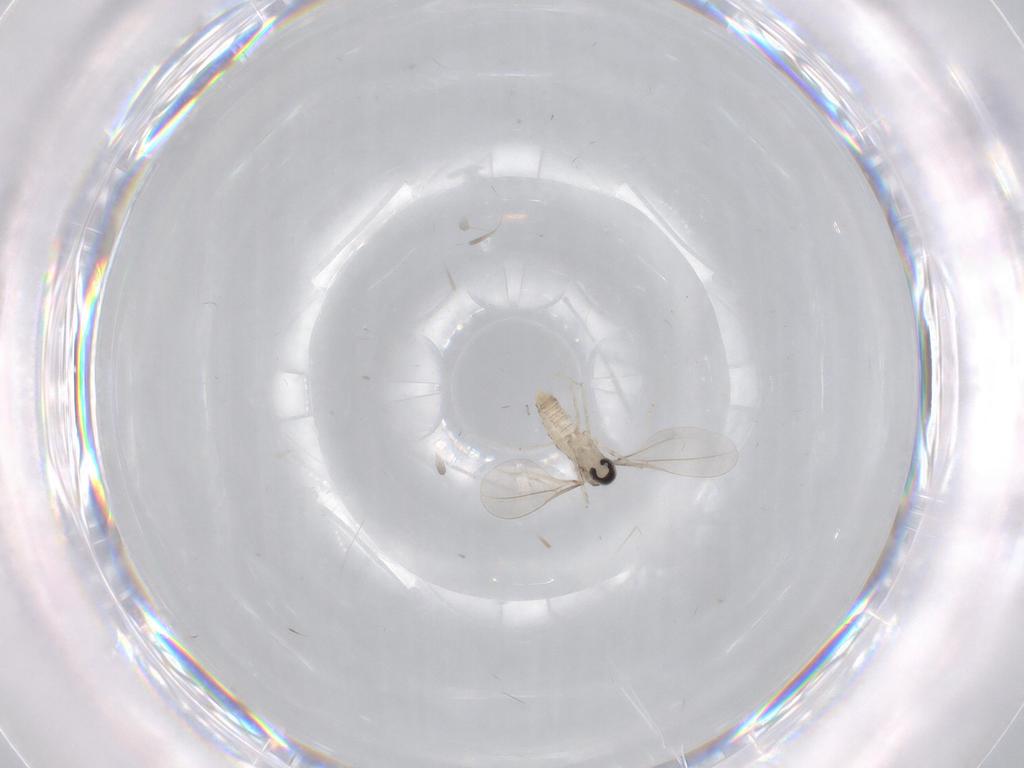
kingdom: Animalia
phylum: Arthropoda
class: Insecta
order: Diptera
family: Cecidomyiidae
